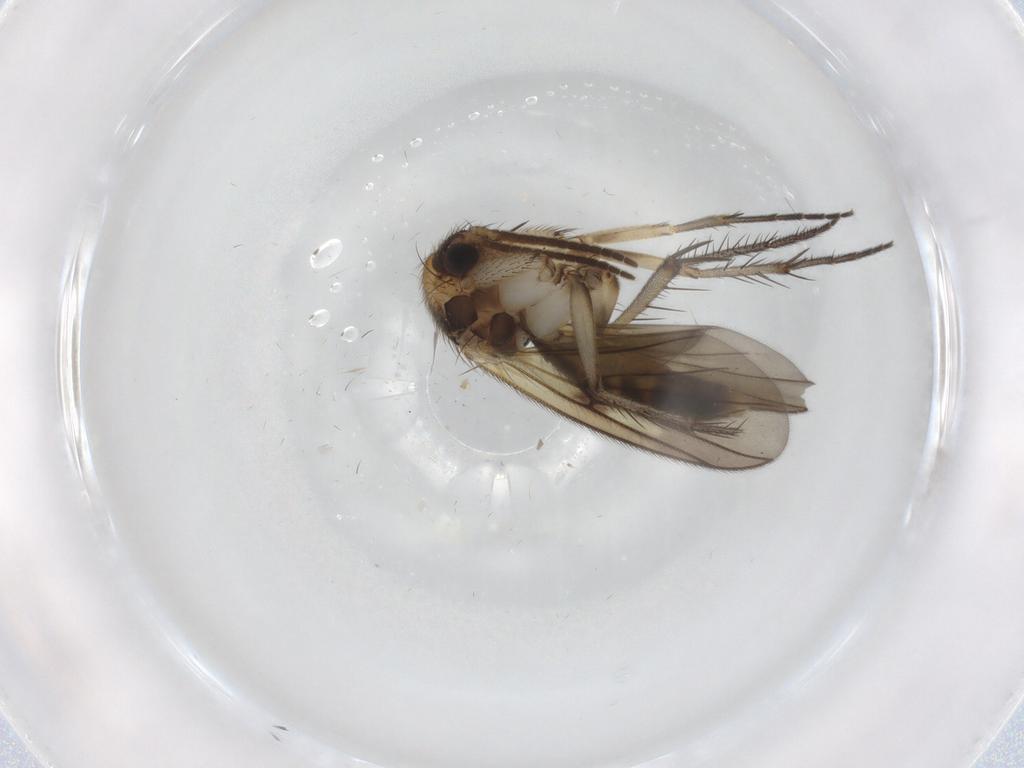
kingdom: Animalia
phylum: Arthropoda
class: Insecta
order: Diptera
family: Mycetophilidae
